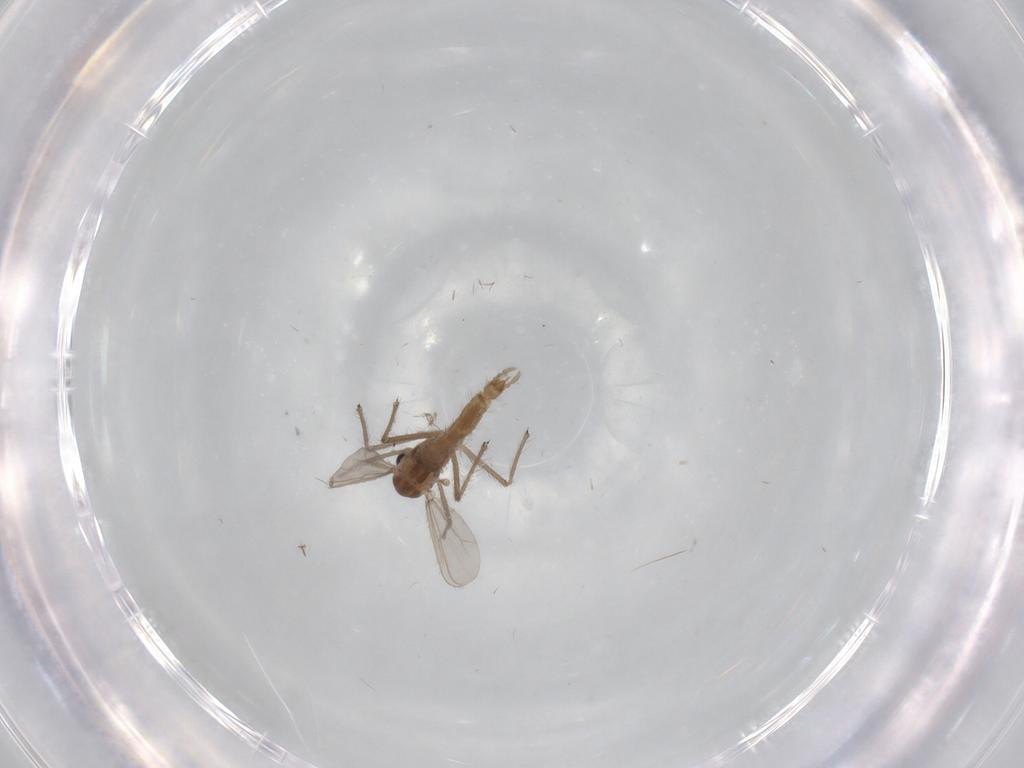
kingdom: Animalia
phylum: Arthropoda
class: Insecta
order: Diptera
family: Chironomidae
